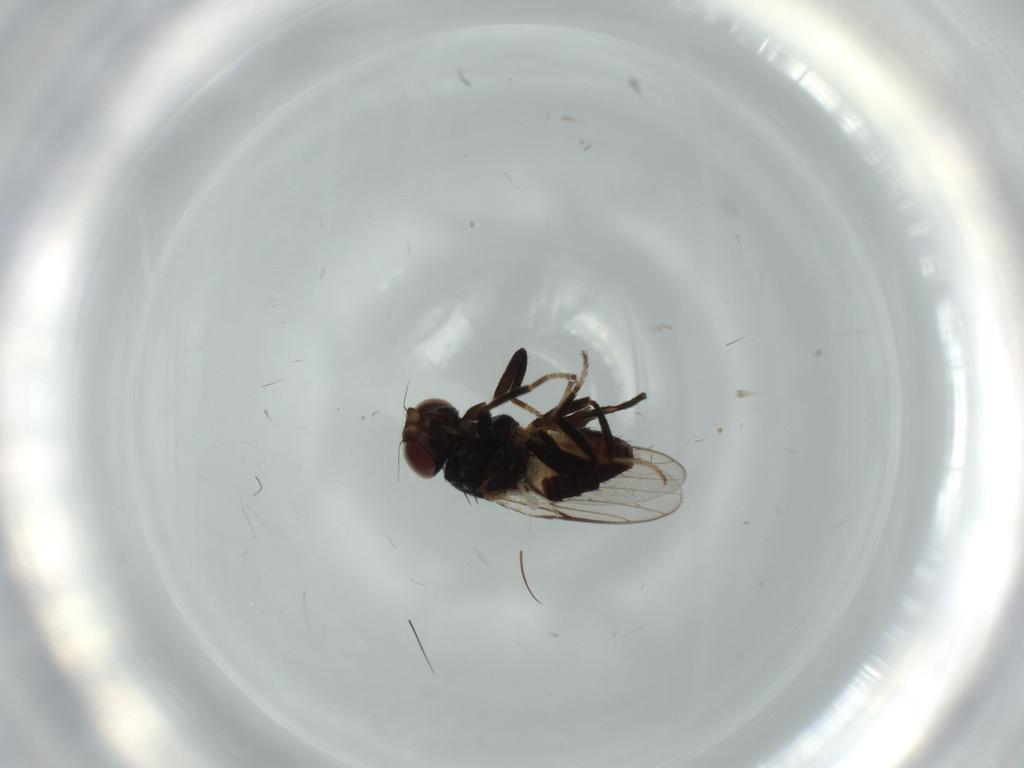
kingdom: Animalia
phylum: Arthropoda
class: Insecta
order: Diptera
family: Chloropidae
